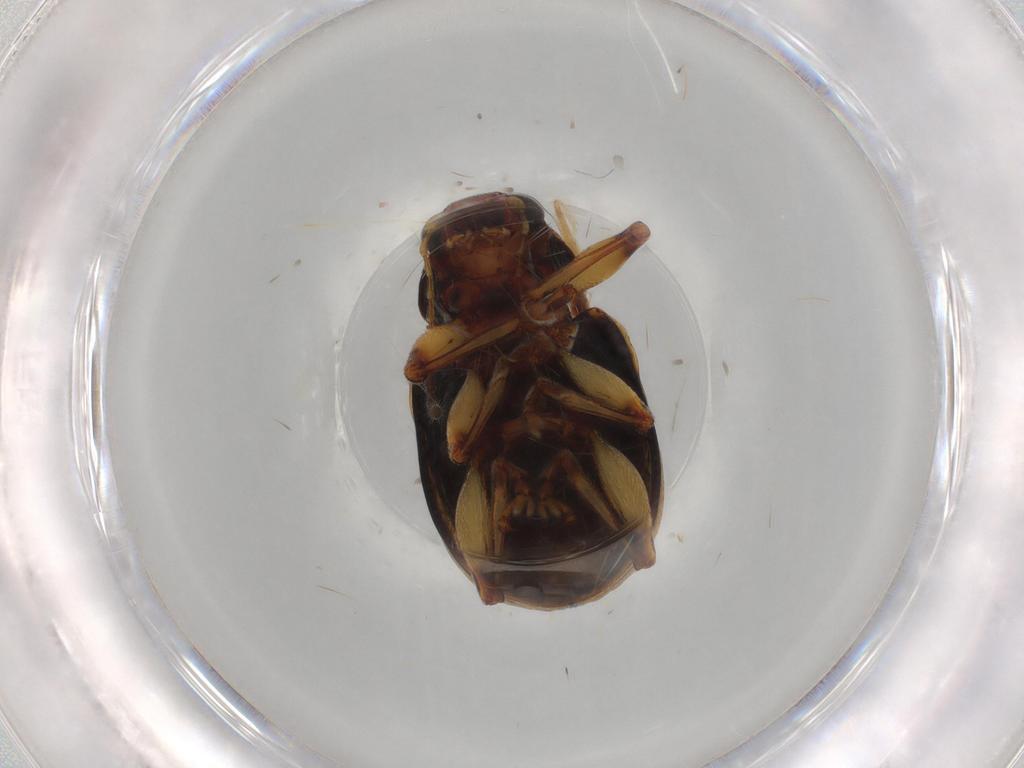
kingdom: Animalia
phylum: Arthropoda
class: Insecta
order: Coleoptera
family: Chrysomelidae
